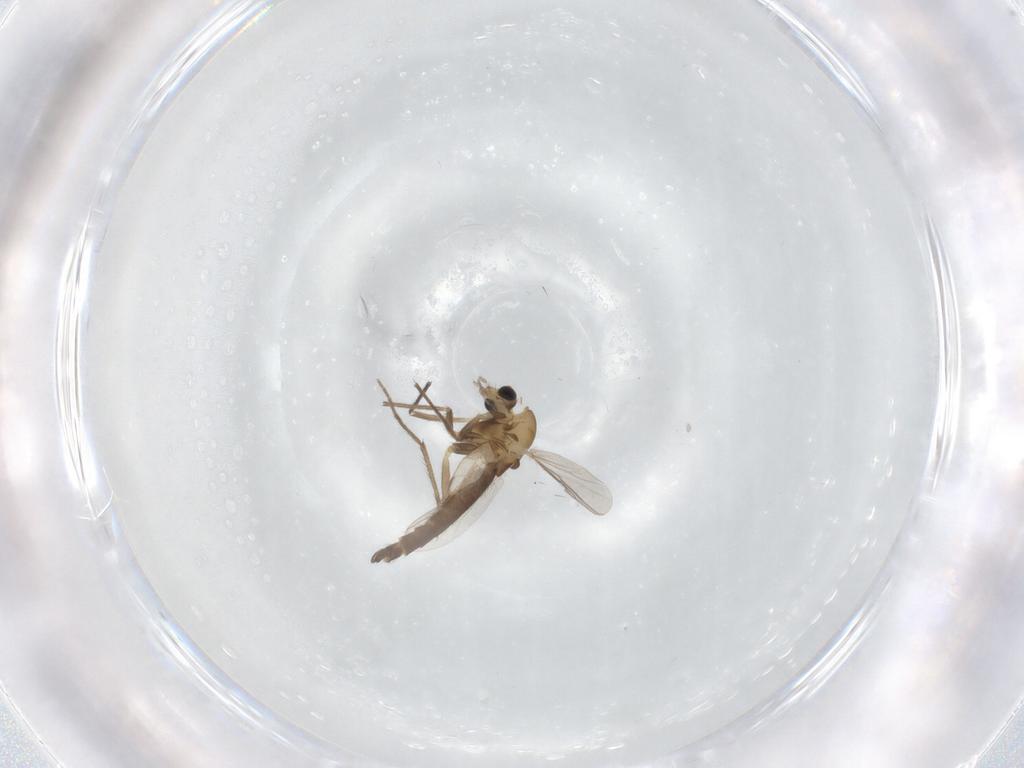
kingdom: Animalia
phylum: Arthropoda
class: Insecta
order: Diptera
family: Chironomidae
